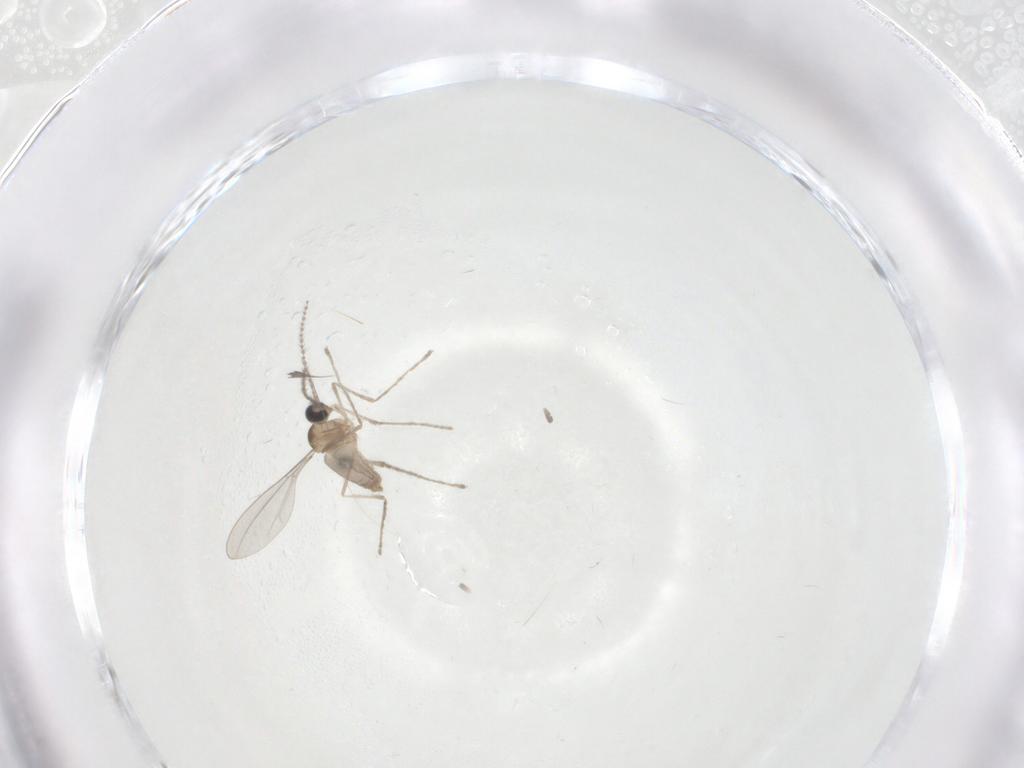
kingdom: Animalia
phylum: Arthropoda
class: Insecta
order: Diptera
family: Cecidomyiidae
